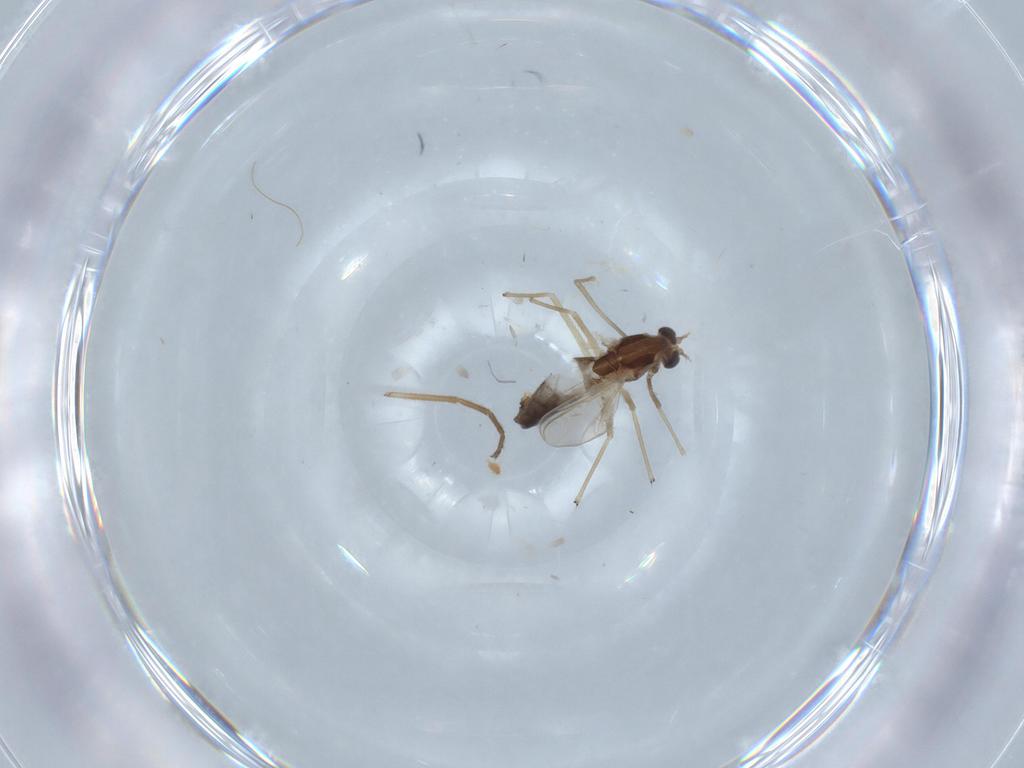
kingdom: Animalia
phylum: Arthropoda
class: Insecta
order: Diptera
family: Chironomidae
